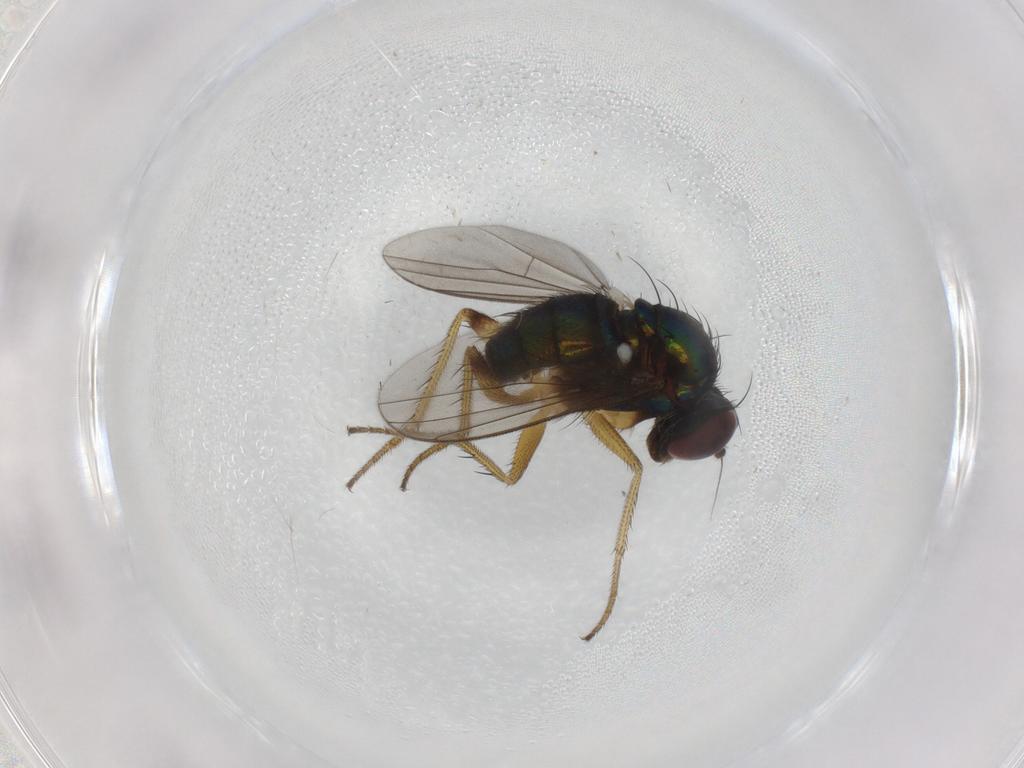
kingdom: Animalia
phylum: Arthropoda
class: Insecta
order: Diptera
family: Dolichopodidae
